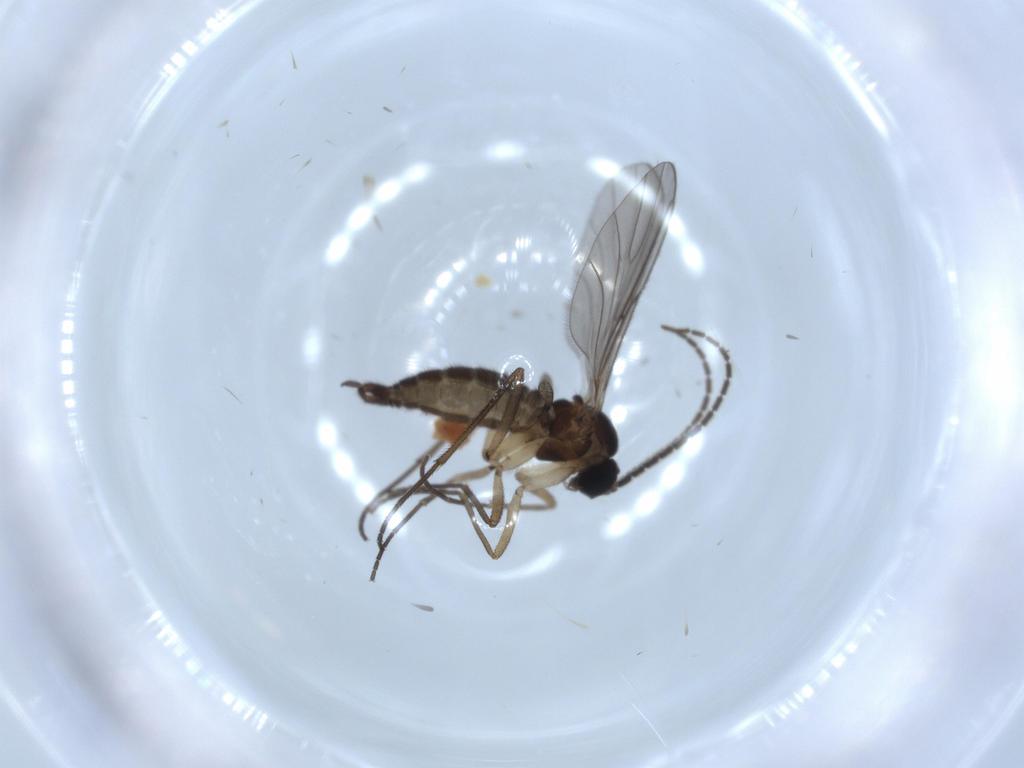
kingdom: Animalia
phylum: Arthropoda
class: Insecta
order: Diptera
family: Sciaridae
